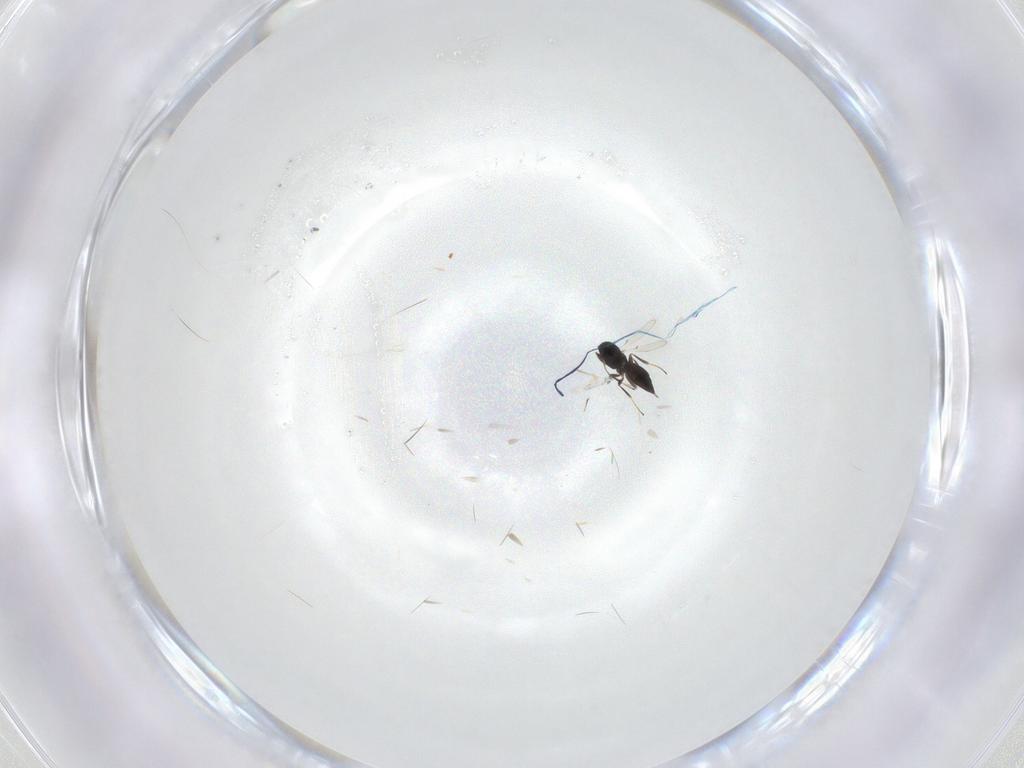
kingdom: Animalia
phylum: Arthropoda
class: Insecta
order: Hymenoptera
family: Scelionidae
